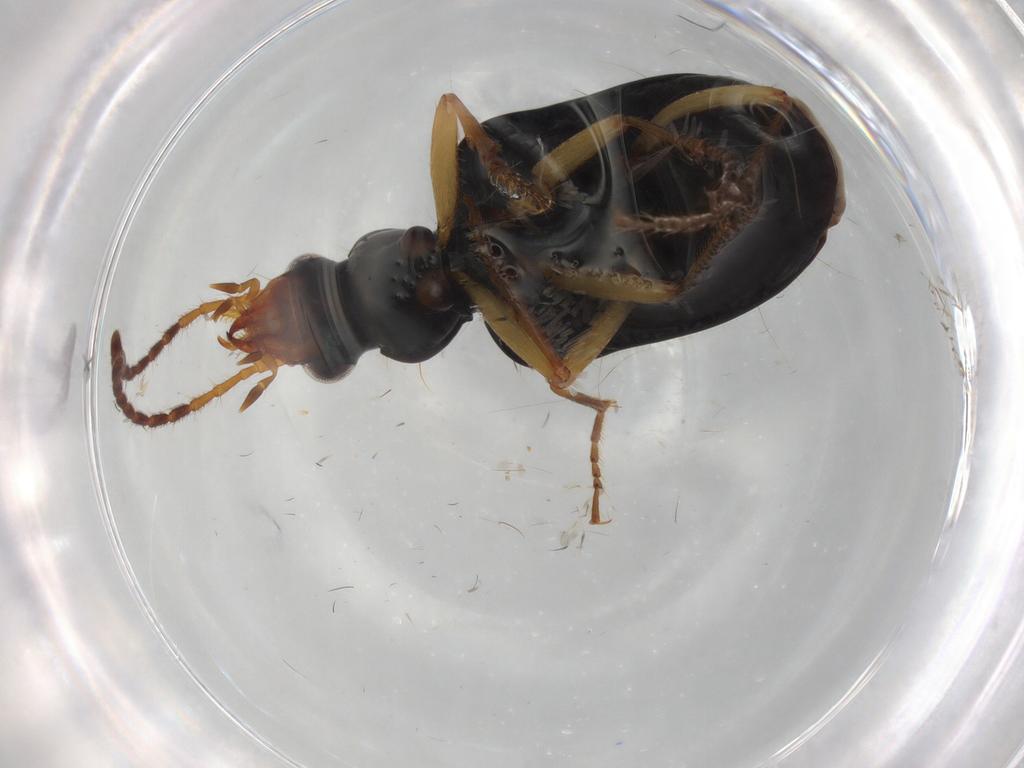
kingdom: Animalia
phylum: Arthropoda
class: Insecta
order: Coleoptera
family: Carabidae
